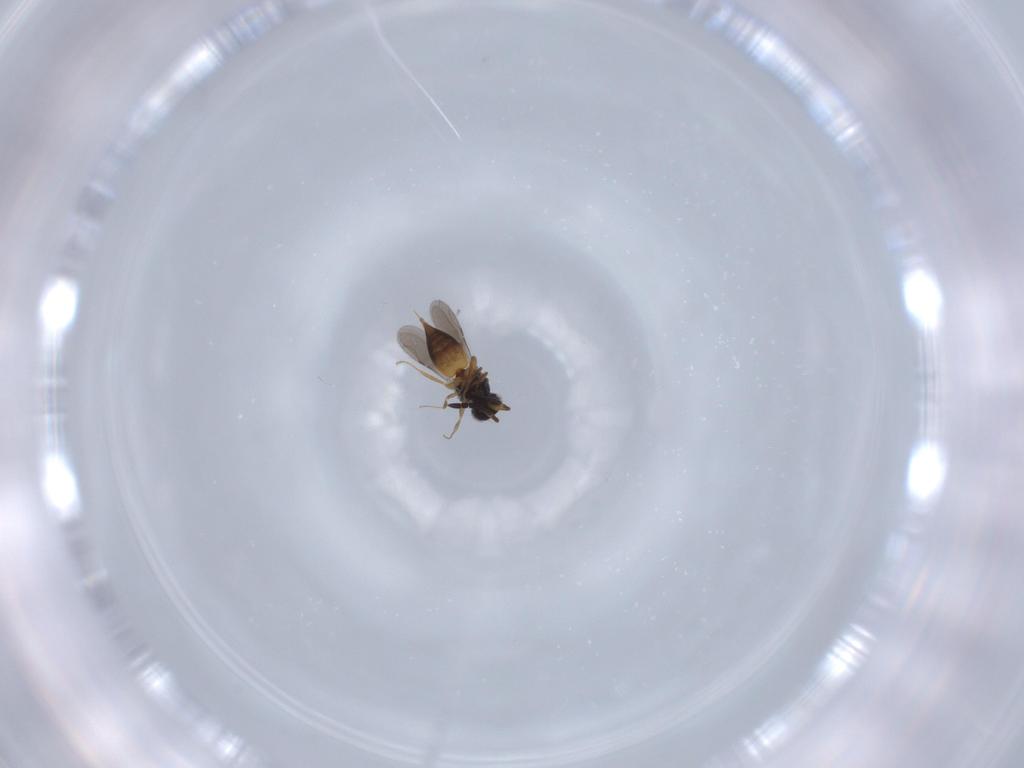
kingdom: Animalia
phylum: Arthropoda
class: Insecta
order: Hymenoptera
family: Ceraphronidae
